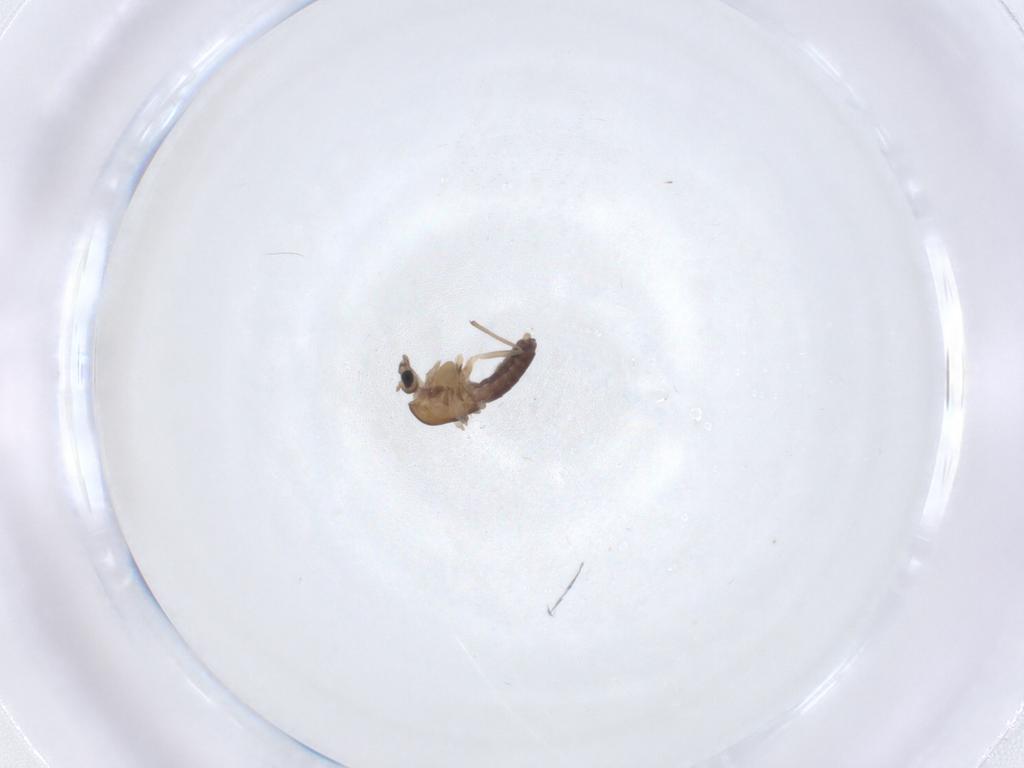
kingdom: Animalia
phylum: Arthropoda
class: Insecta
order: Diptera
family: Chironomidae
